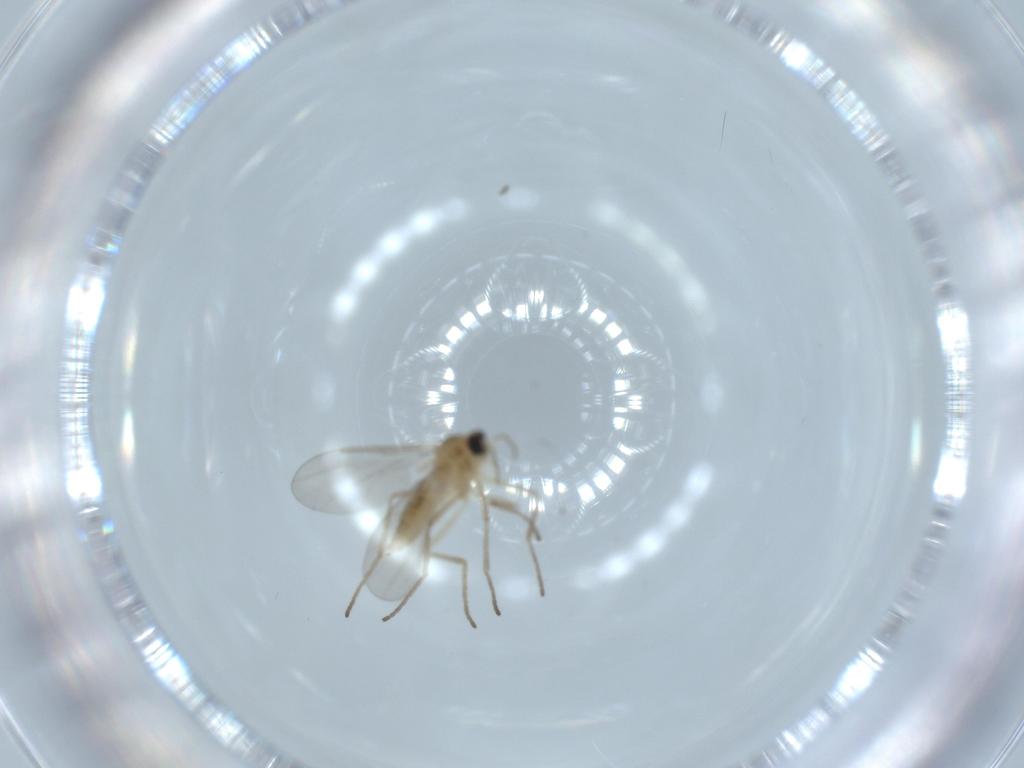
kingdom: Animalia
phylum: Arthropoda
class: Insecta
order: Diptera
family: Cecidomyiidae
